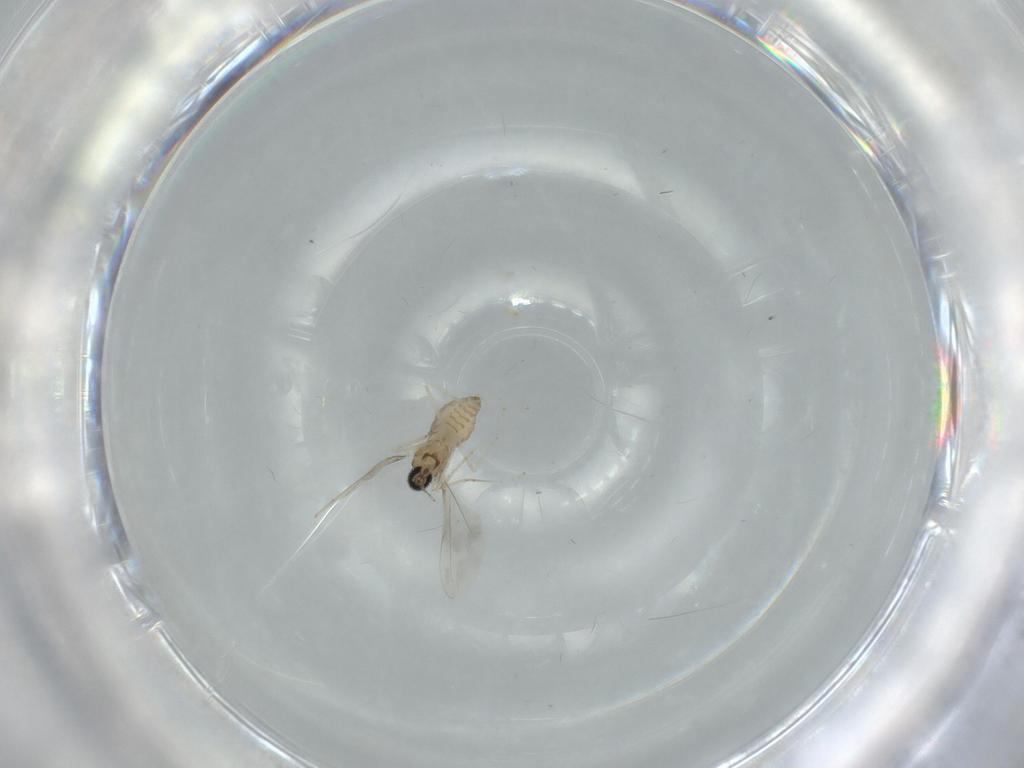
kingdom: Animalia
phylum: Arthropoda
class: Insecta
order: Diptera
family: Cecidomyiidae
